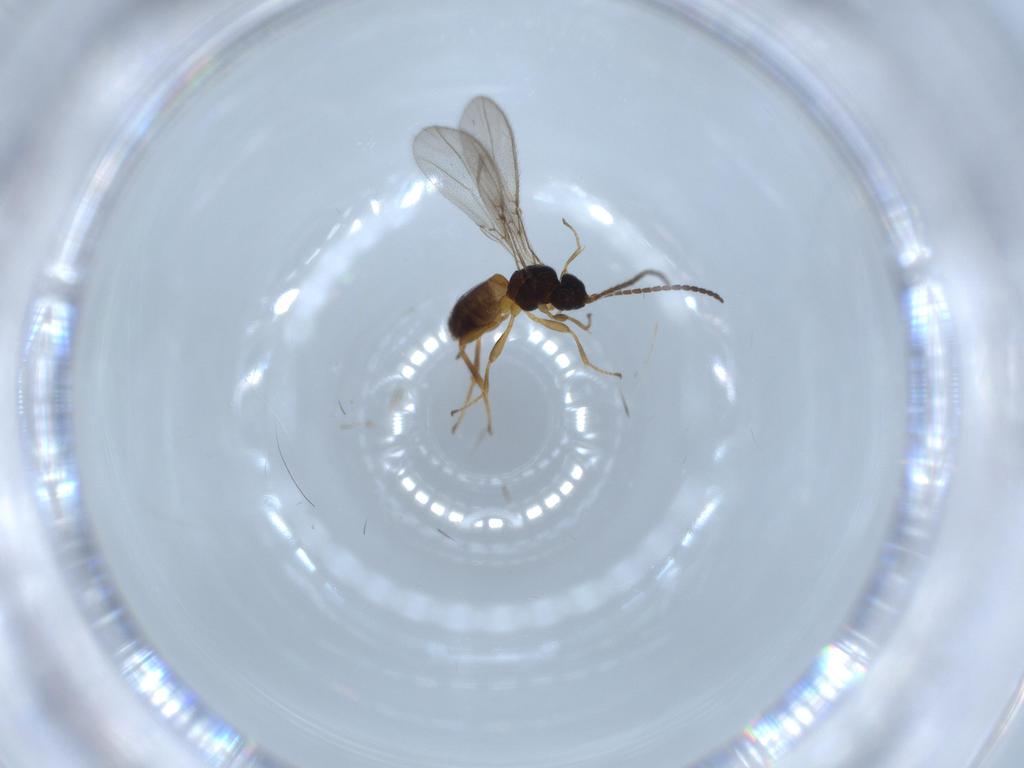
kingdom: Animalia
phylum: Arthropoda
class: Insecta
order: Hymenoptera
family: Braconidae
